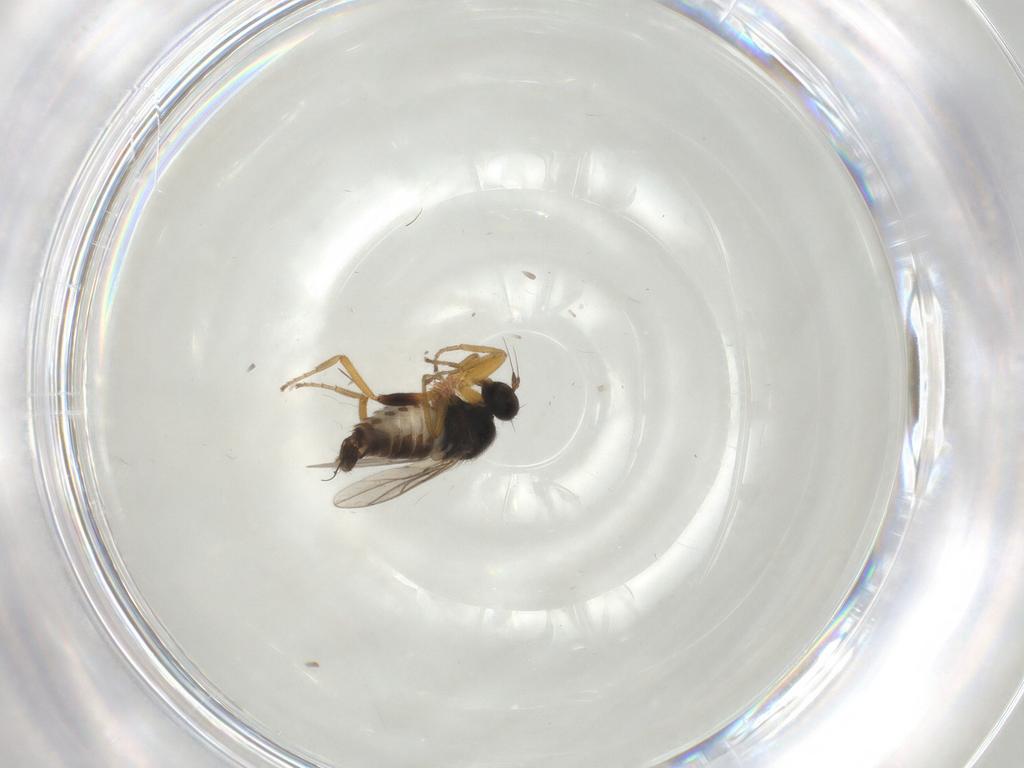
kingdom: Animalia
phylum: Arthropoda
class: Insecta
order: Diptera
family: Hybotidae
